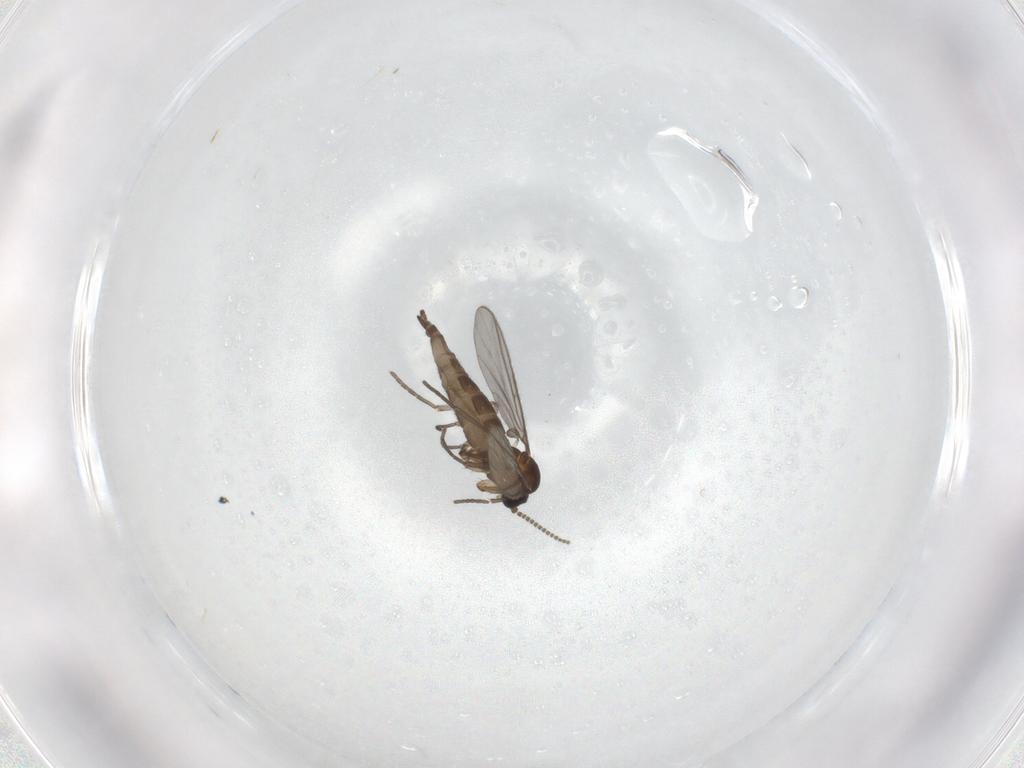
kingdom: Animalia
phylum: Arthropoda
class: Insecta
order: Diptera
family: Sciaridae
